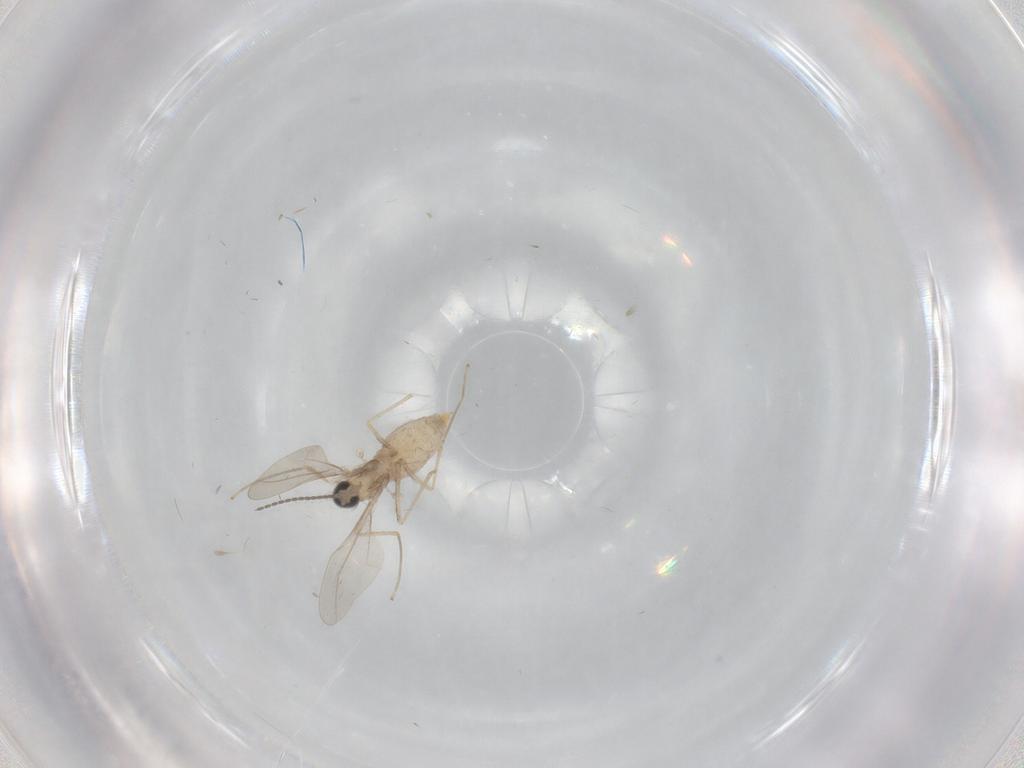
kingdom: Animalia
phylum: Arthropoda
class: Insecta
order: Diptera
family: Cecidomyiidae
